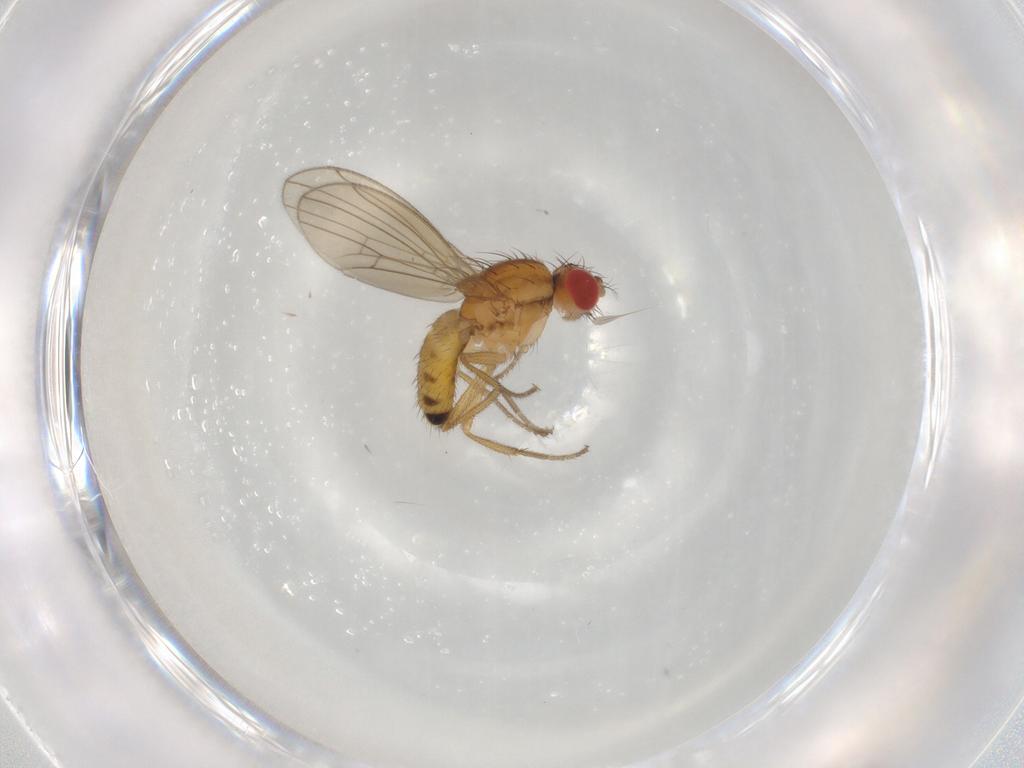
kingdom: Animalia
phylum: Arthropoda
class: Insecta
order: Diptera
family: Drosophilidae
